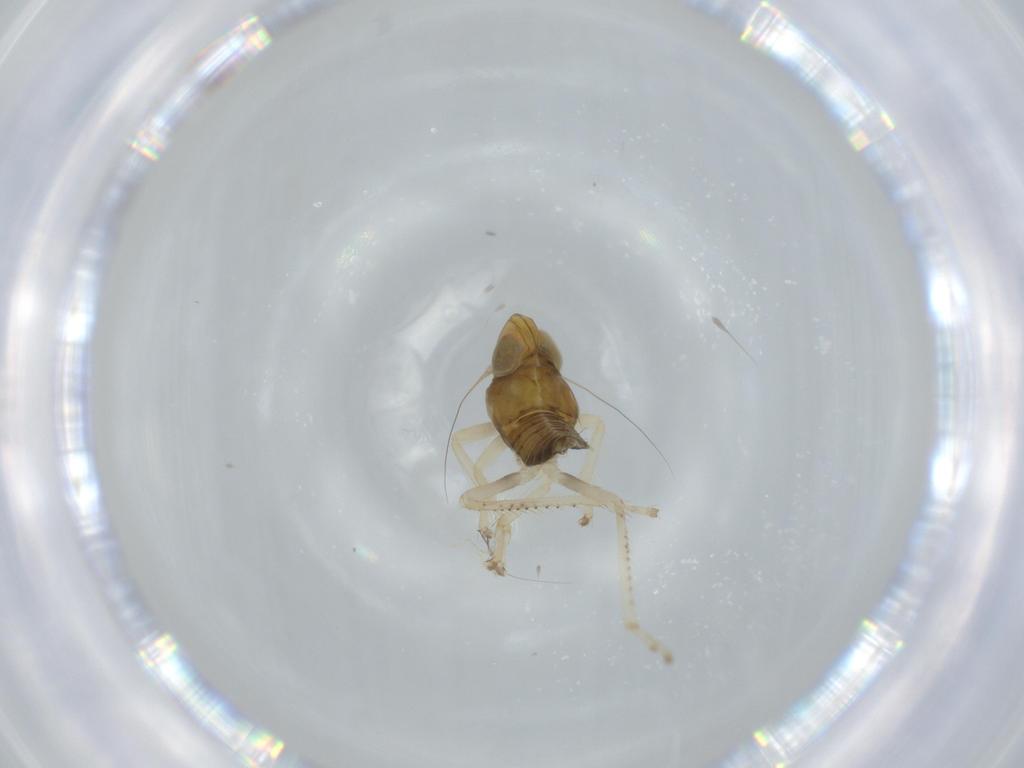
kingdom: Animalia
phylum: Arthropoda
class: Insecta
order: Hemiptera
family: Cicadellidae
